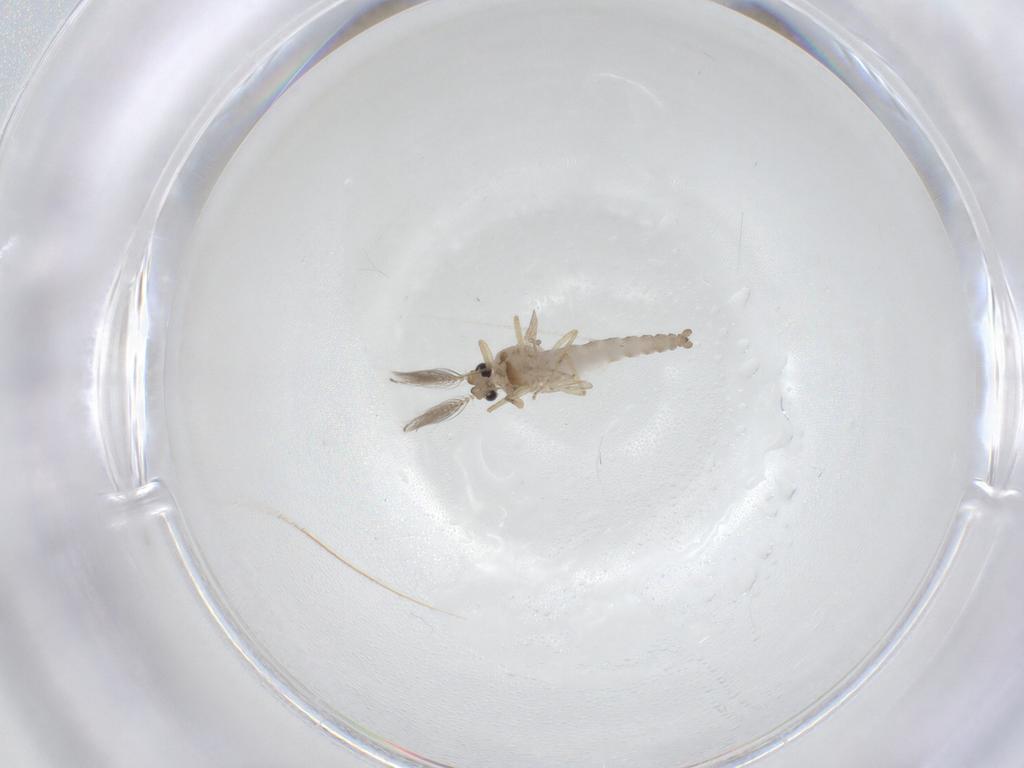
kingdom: Animalia
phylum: Arthropoda
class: Insecta
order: Diptera
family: Ceratopogonidae
